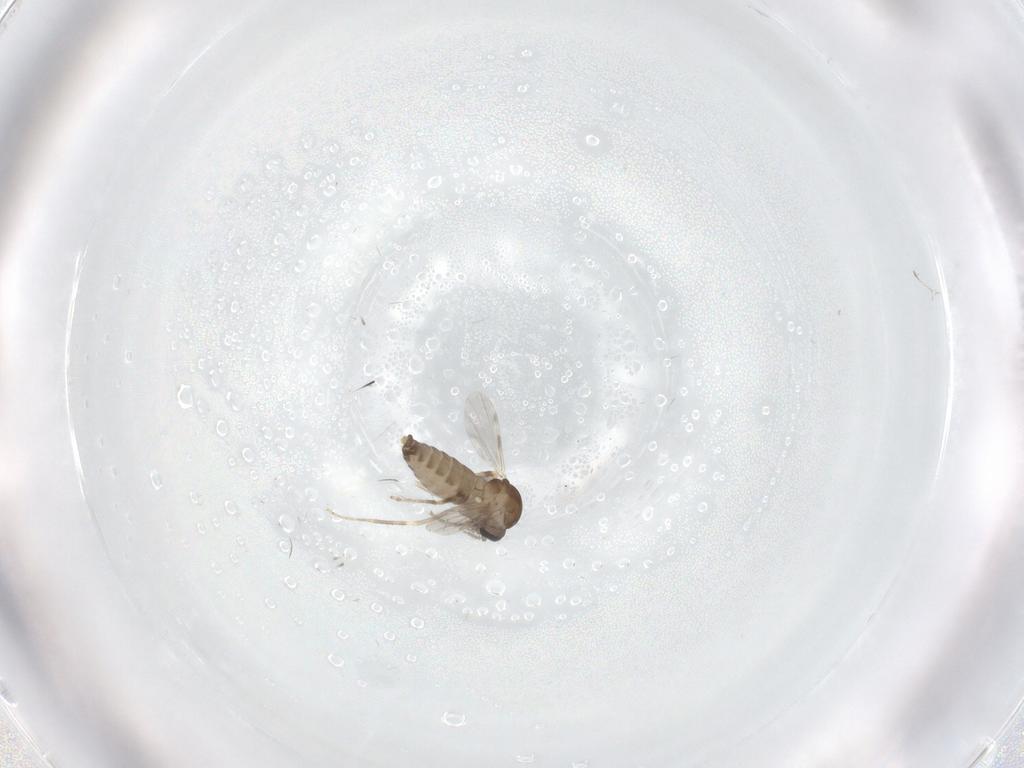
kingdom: Animalia
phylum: Arthropoda
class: Insecta
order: Diptera
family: Ceratopogonidae
